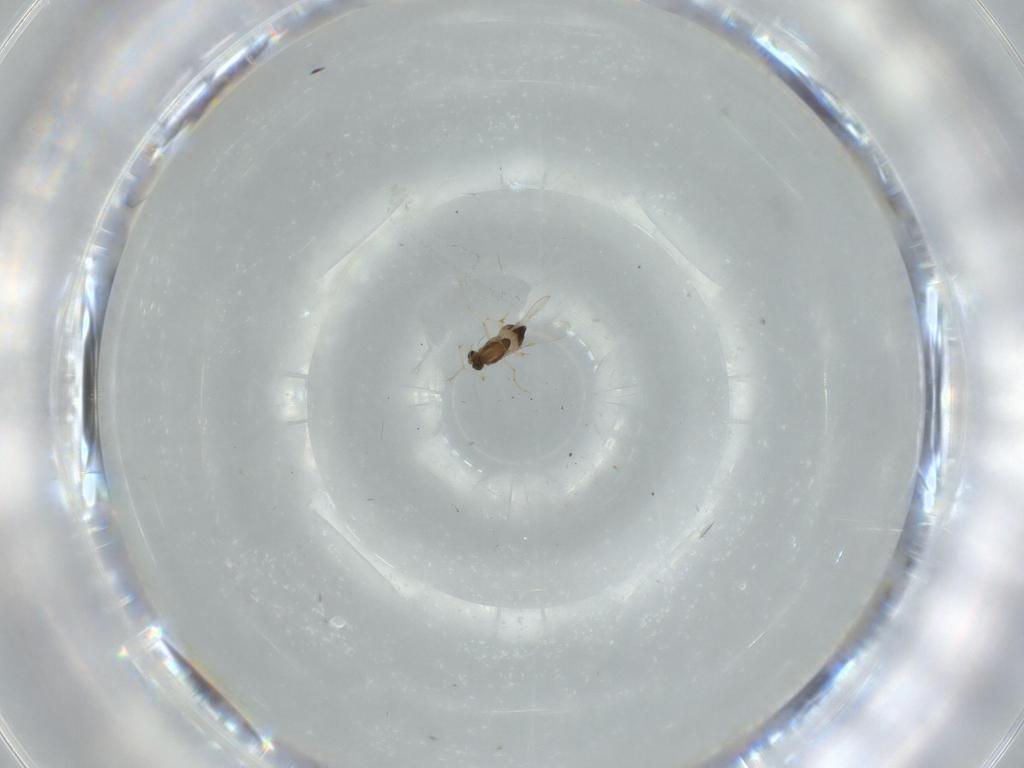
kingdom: Animalia
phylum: Arthropoda
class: Insecta
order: Diptera
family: Chironomidae
